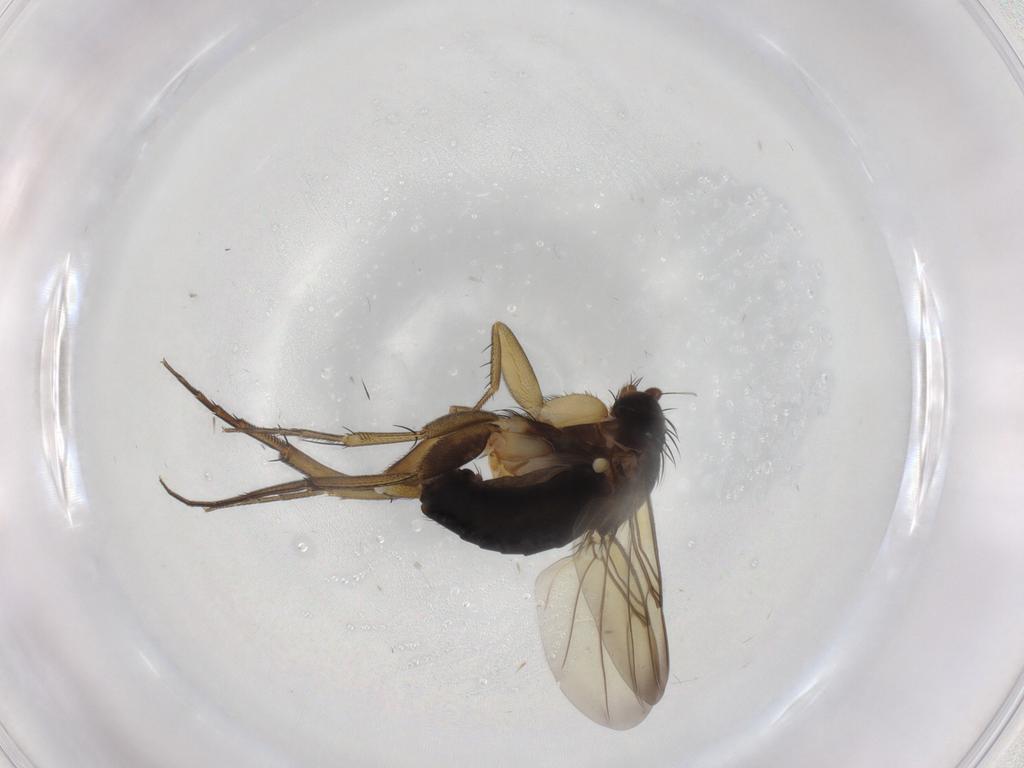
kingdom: Animalia
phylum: Arthropoda
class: Insecta
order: Diptera
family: Phoridae
